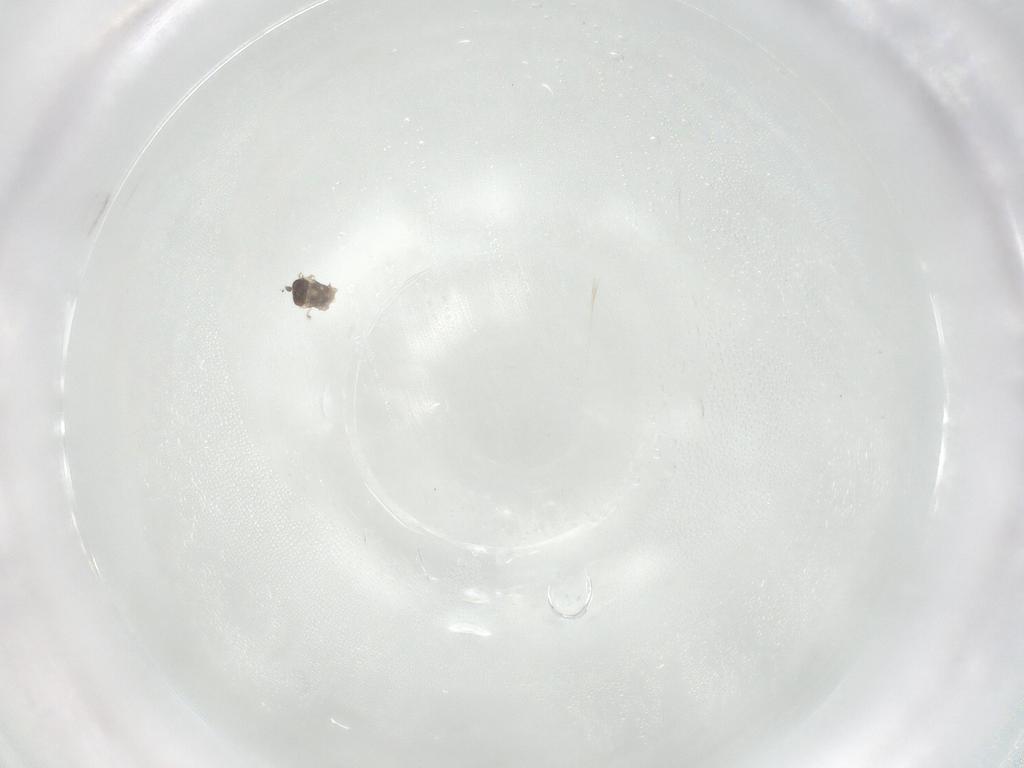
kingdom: Animalia
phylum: Arthropoda
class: Insecta
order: Diptera
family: Cecidomyiidae
